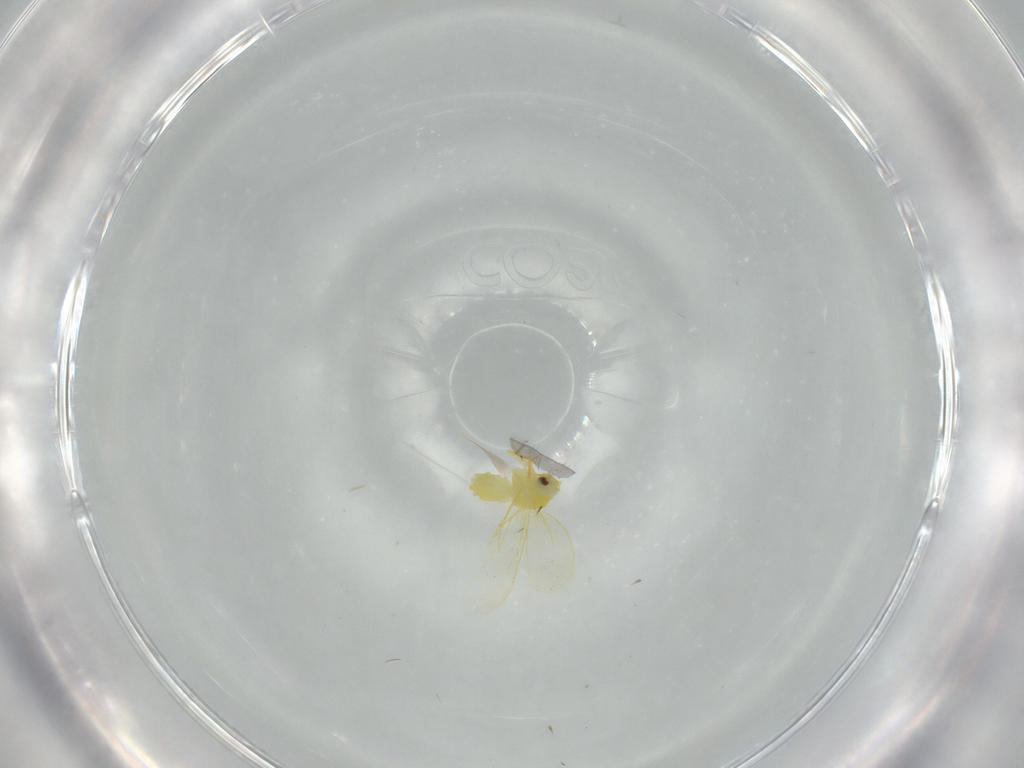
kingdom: Animalia
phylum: Arthropoda
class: Insecta
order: Hemiptera
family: Aleyrodidae
